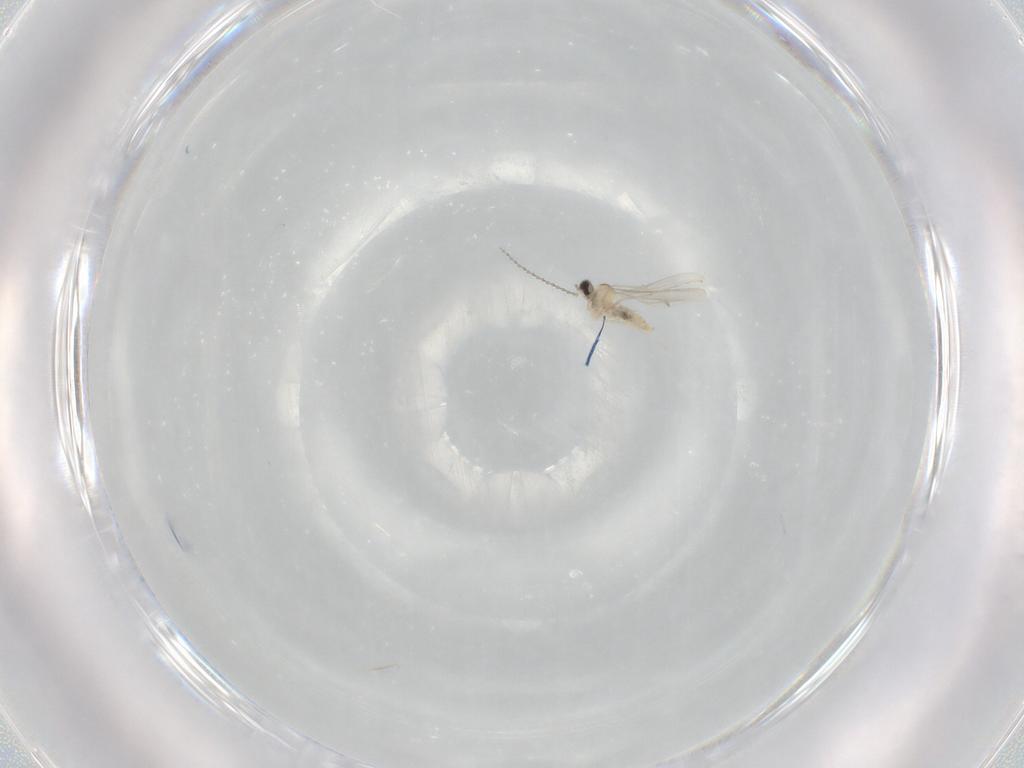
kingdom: Animalia
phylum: Arthropoda
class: Insecta
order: Diptera
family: Cecidomyiidae
